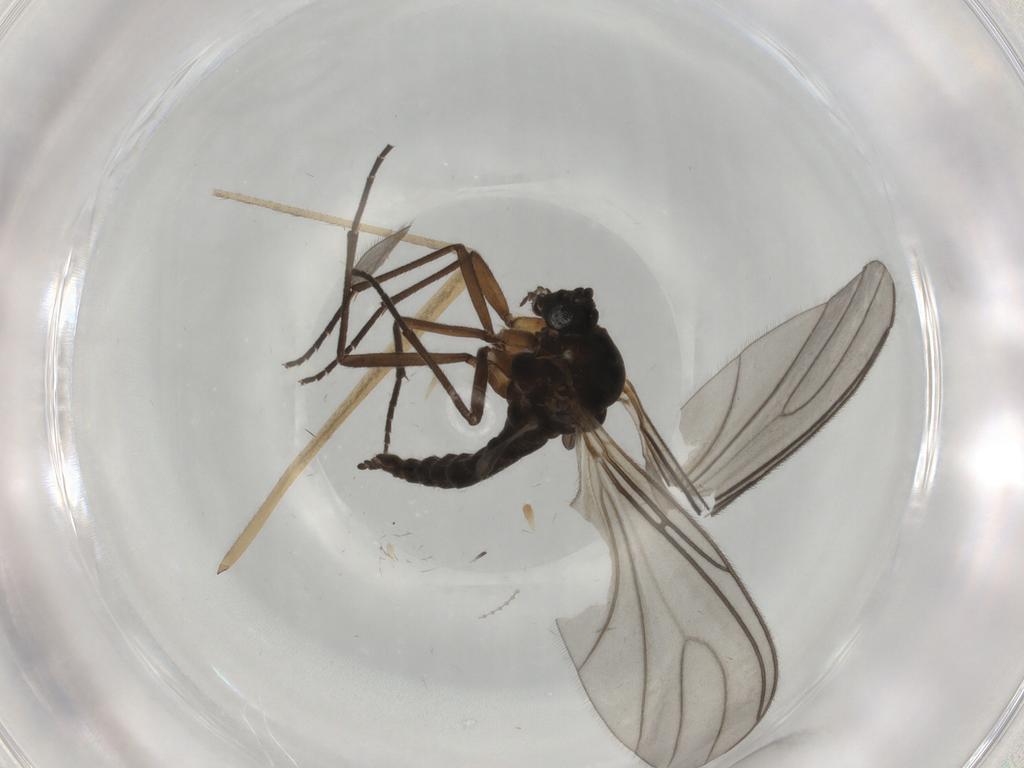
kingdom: Animalia
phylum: Arthropoda
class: Insecta
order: Diptera
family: Sciaridae
